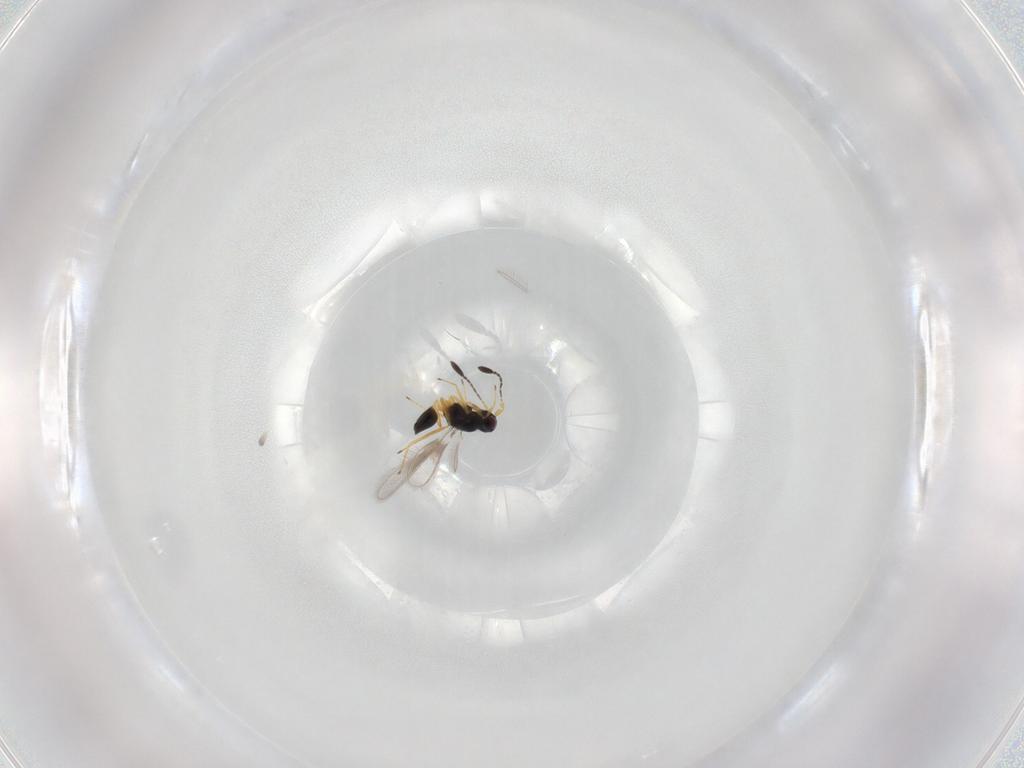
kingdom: Animalia
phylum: Arthropoda
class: Insecta
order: Hymenoptera
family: Mymaridae
